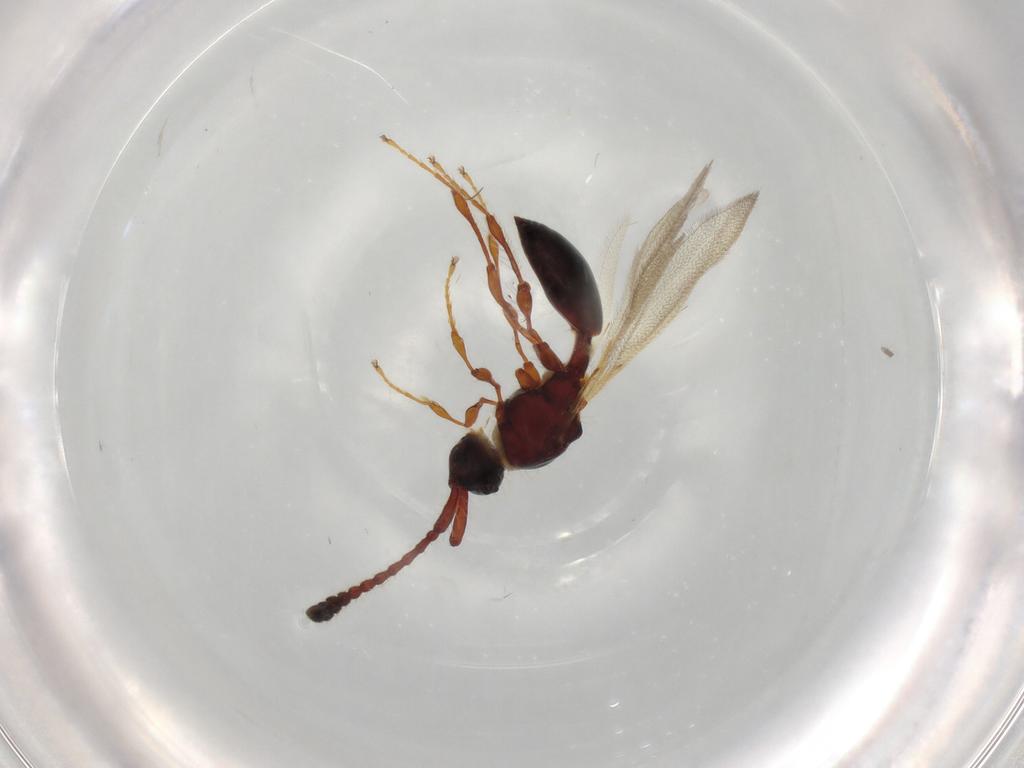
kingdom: Animalia
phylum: Arthropoda
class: Insecta
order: Hymenoptera
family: Diapriidae
